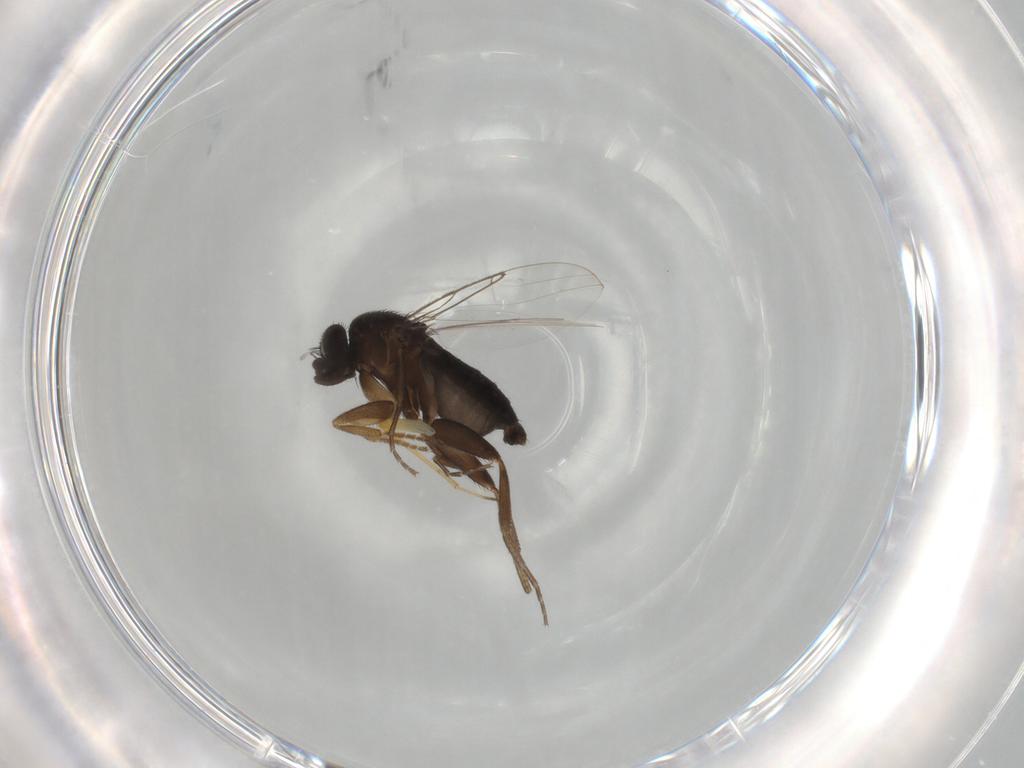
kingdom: Animalia
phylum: Arthropoda
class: Insecta
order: Diptera
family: Phoridae
